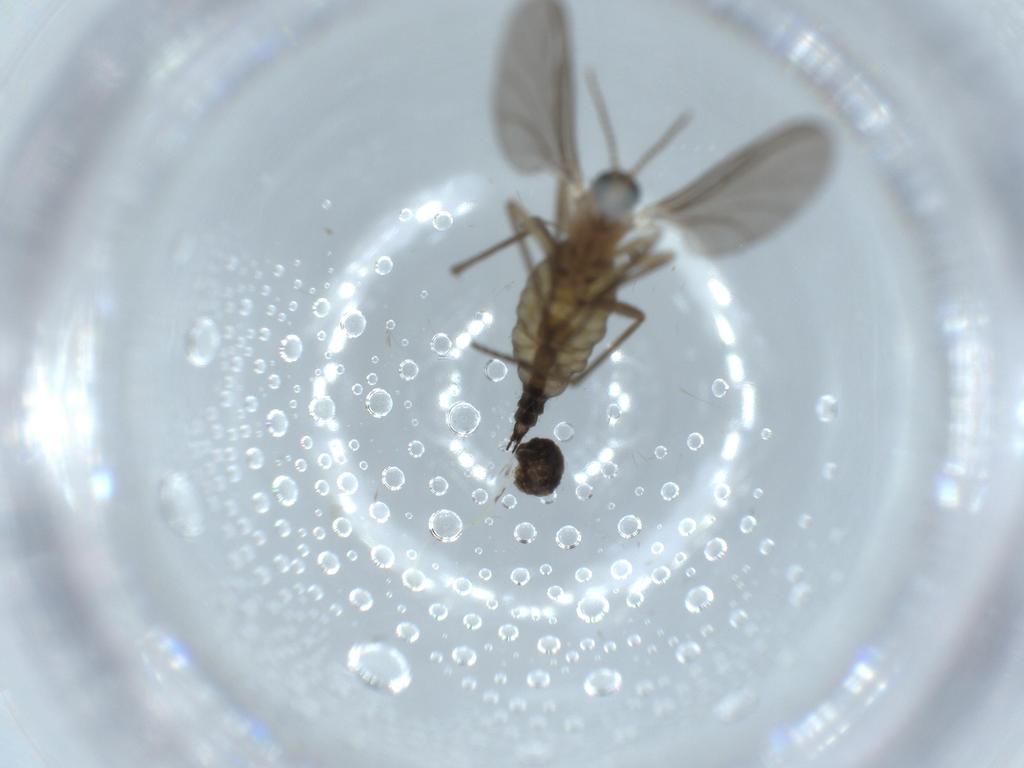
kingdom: Animalia
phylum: Arthropoda
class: Insecta
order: Diptera
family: Sciaridae
